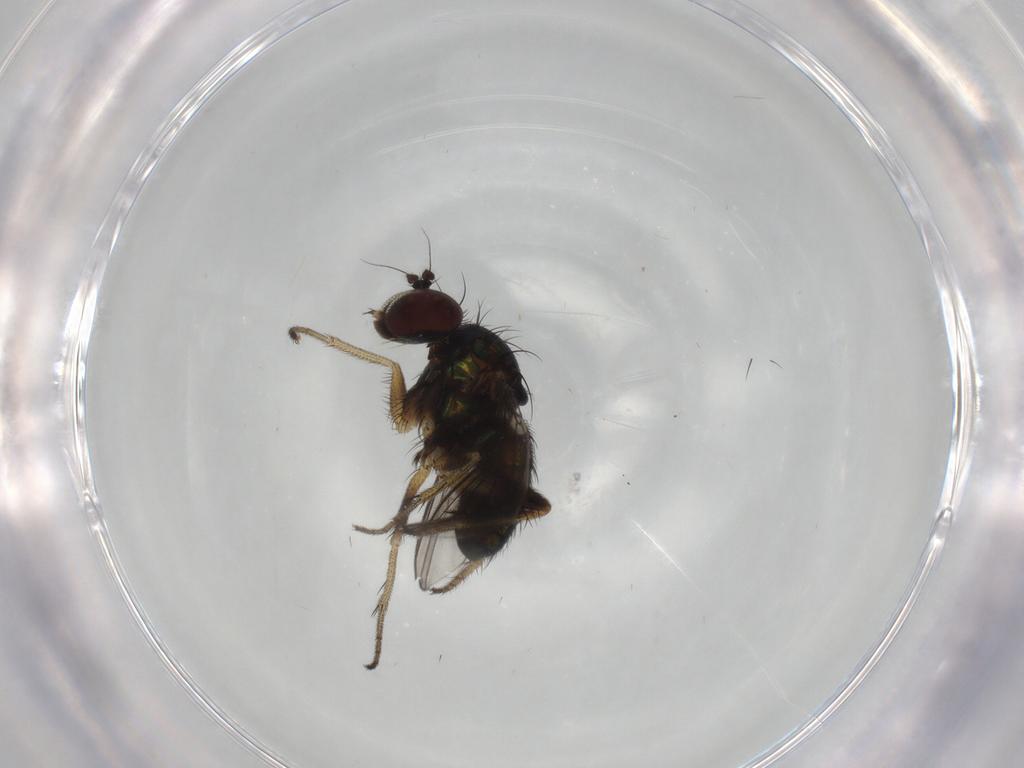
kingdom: Animalia
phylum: Arthropoda
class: Insecta
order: Diptera
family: Dolichopodidae
